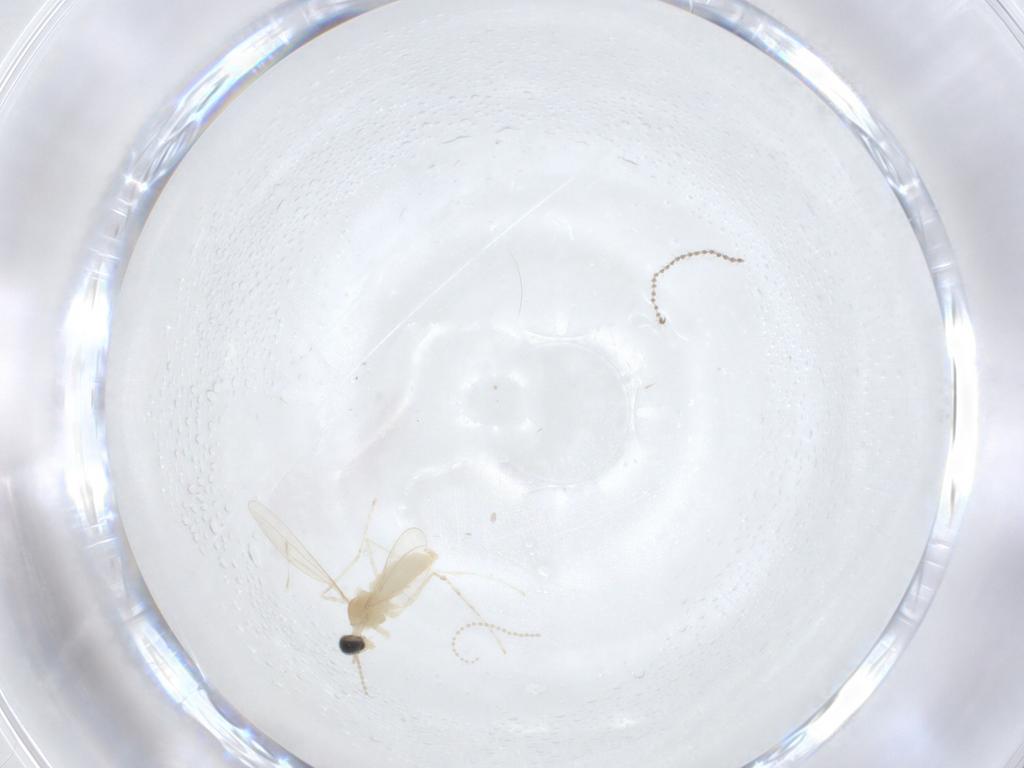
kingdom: Animalia
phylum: Arthropoda
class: Insecta
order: Diptera
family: Cecidomyiidae
